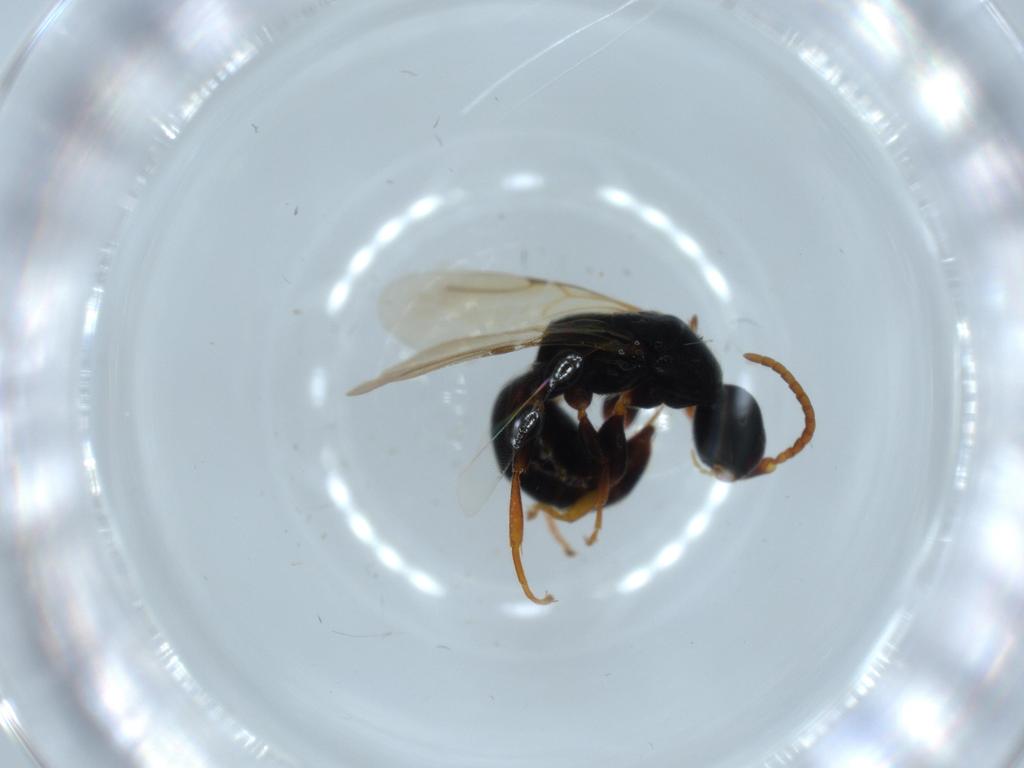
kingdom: Animalia
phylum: Arthropoda
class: Insecta
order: Hymenoptera
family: Bethylidae
